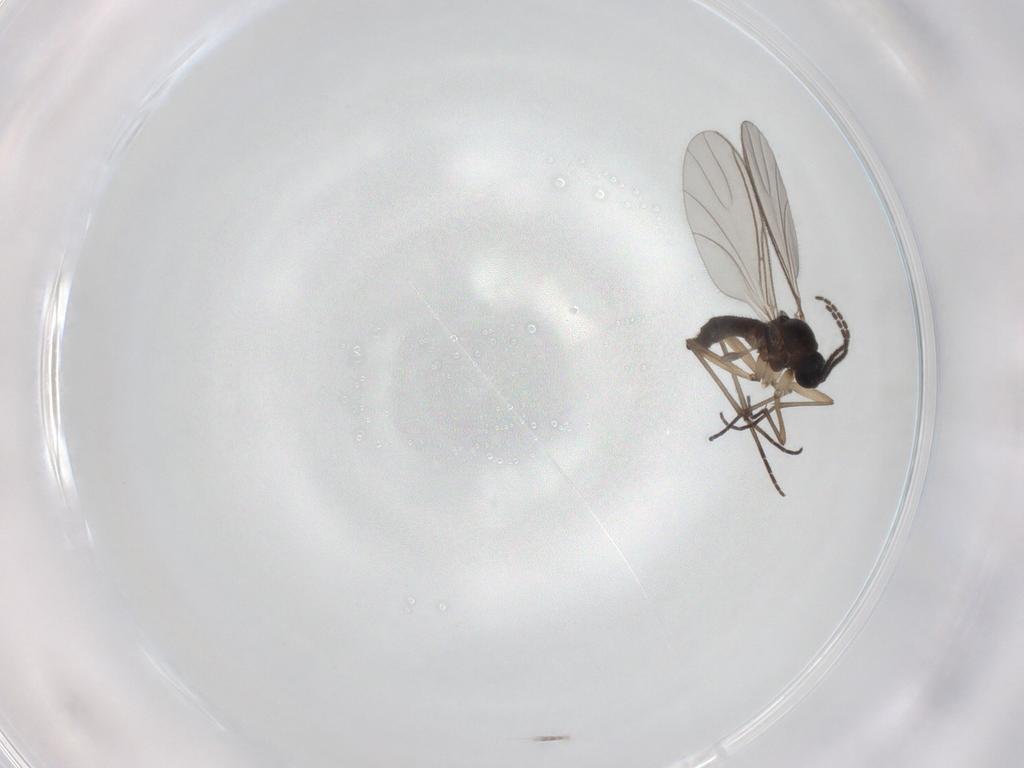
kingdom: Animalia
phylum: Arthropoda
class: Insecta
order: Diptera
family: Sciaridae
